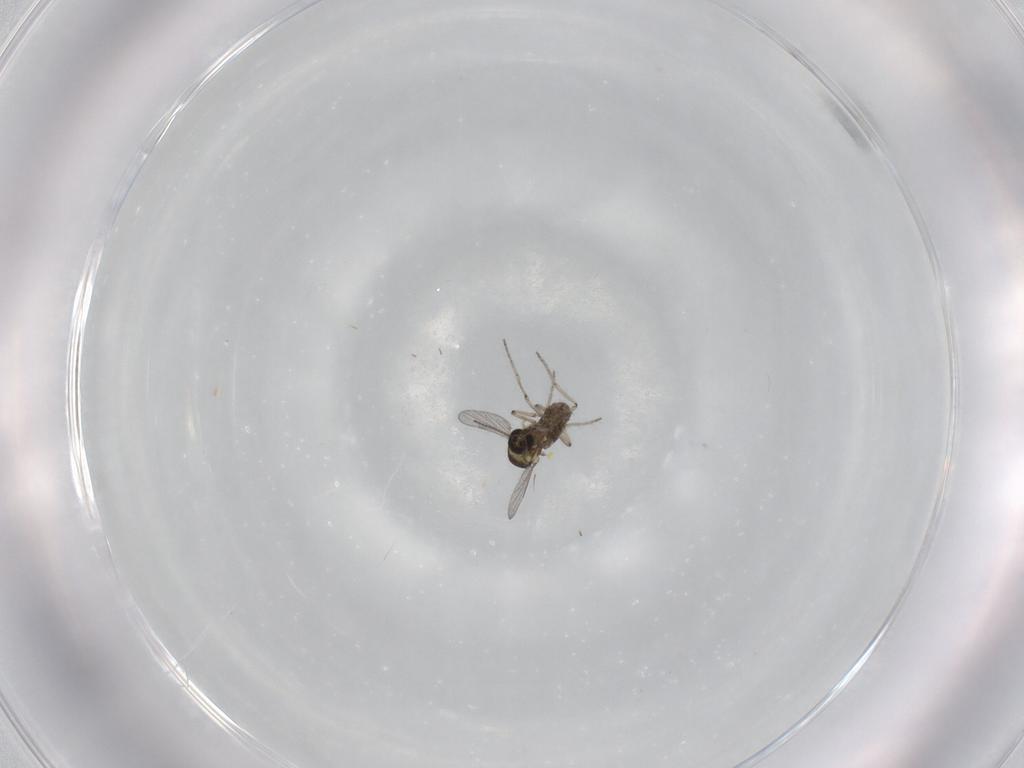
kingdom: Animalia
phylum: Arthropoda
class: Insecta
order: Diptera
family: Ceratopogonidae
